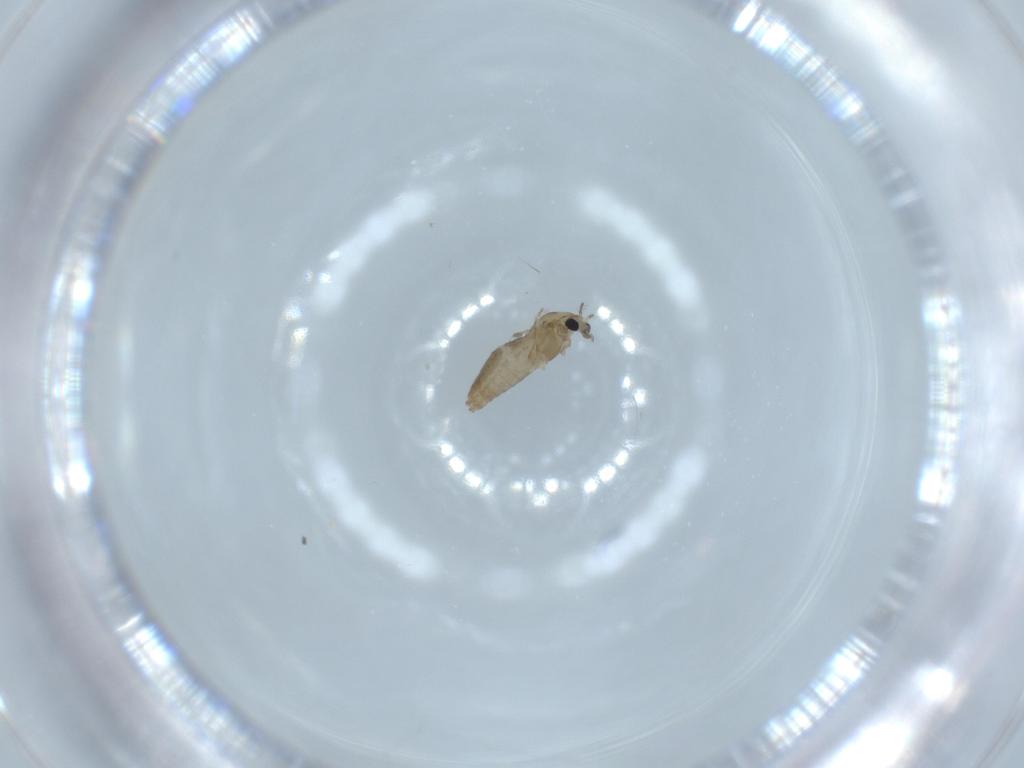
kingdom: Animalia
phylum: Arthropoda
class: Insecta
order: Diptera
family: Chironomidae
